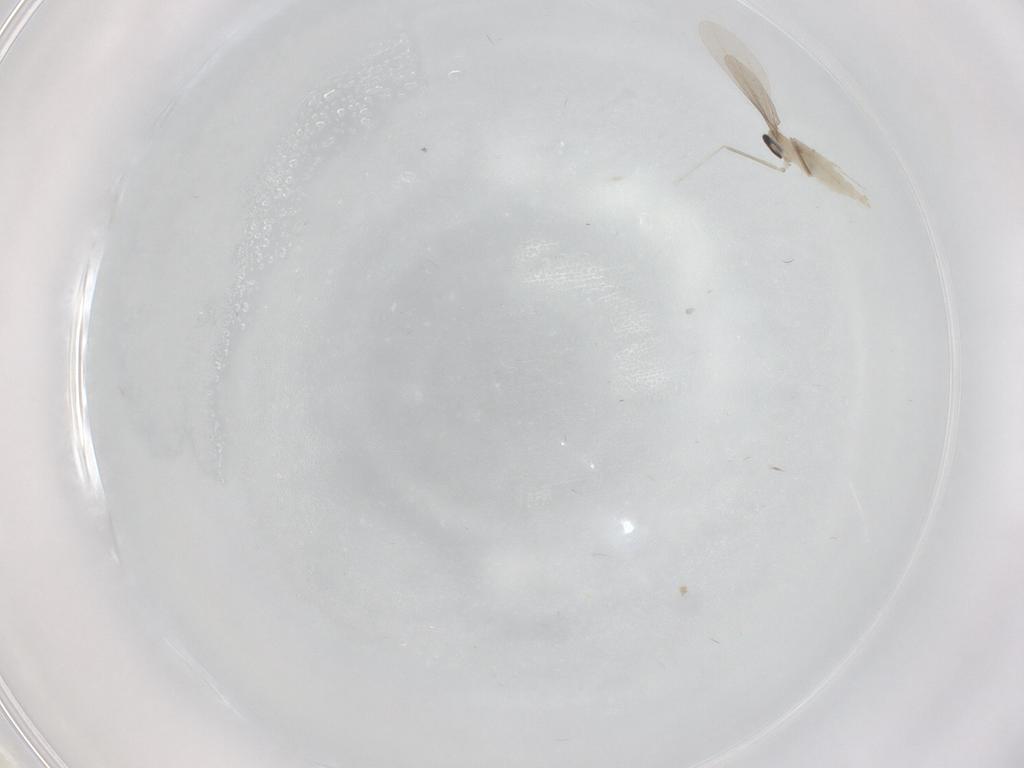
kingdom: Animalia
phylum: Arthropoda
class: Insecta
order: Diptera
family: Cecidomyiidae
